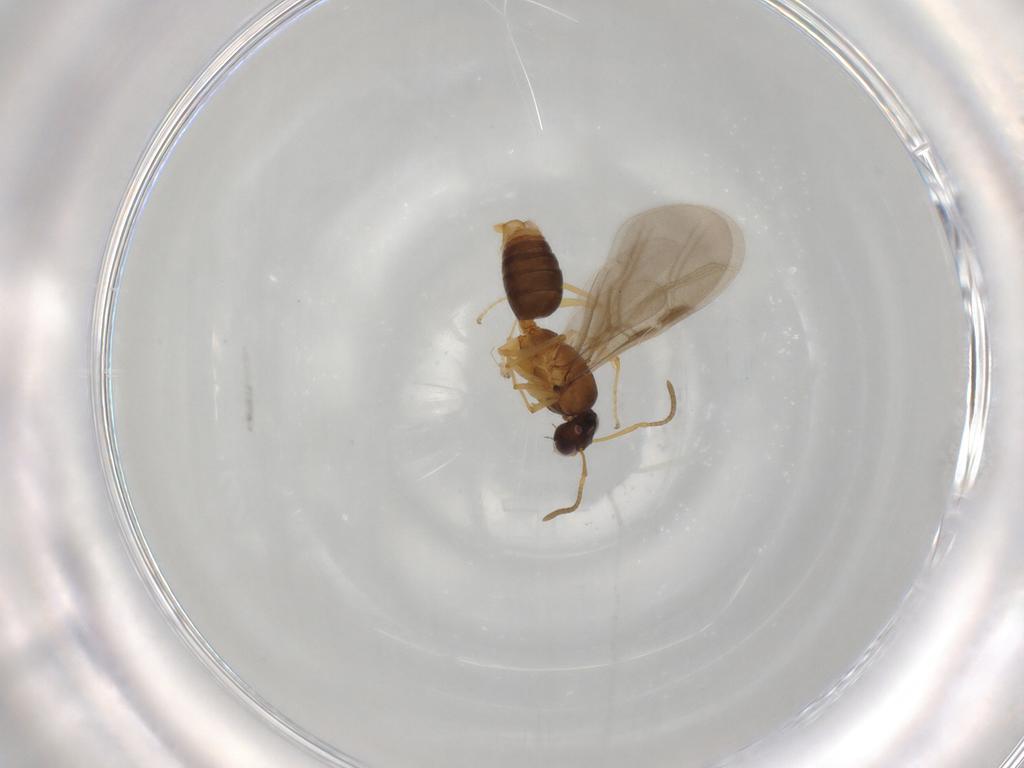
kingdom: Animalia
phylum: Arthropoda
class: Insecta
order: Hymenoptera
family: Formicidae
